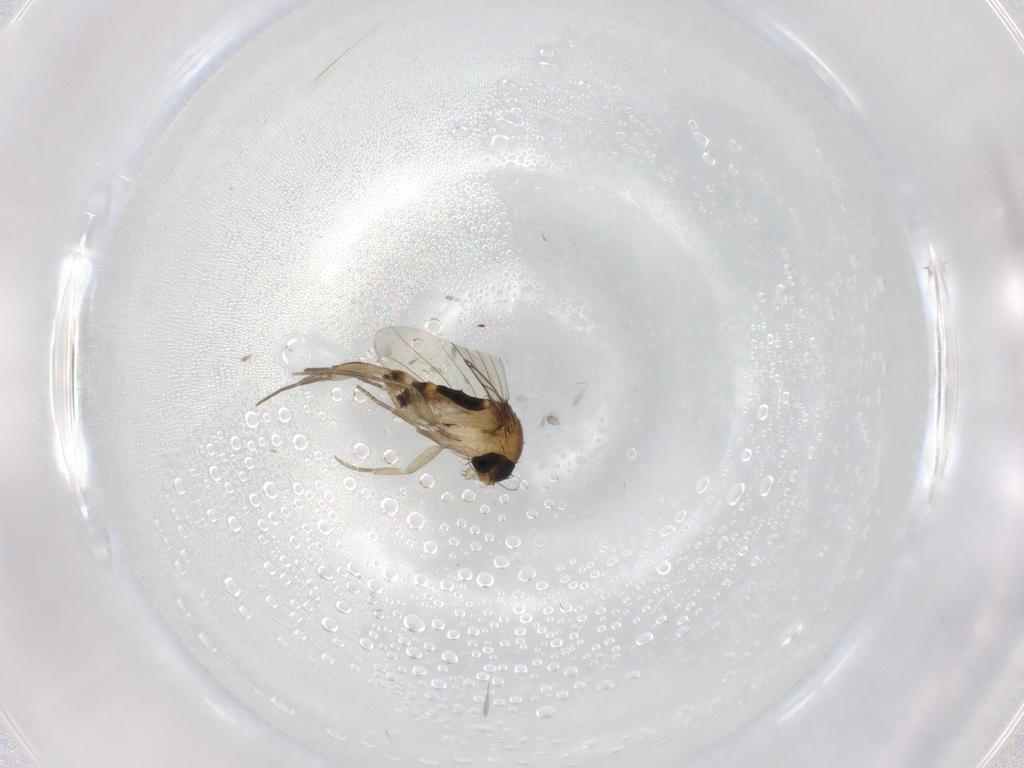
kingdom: Animalia
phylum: Arthropoda
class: Insecta
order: Diptera
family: Phoridae
